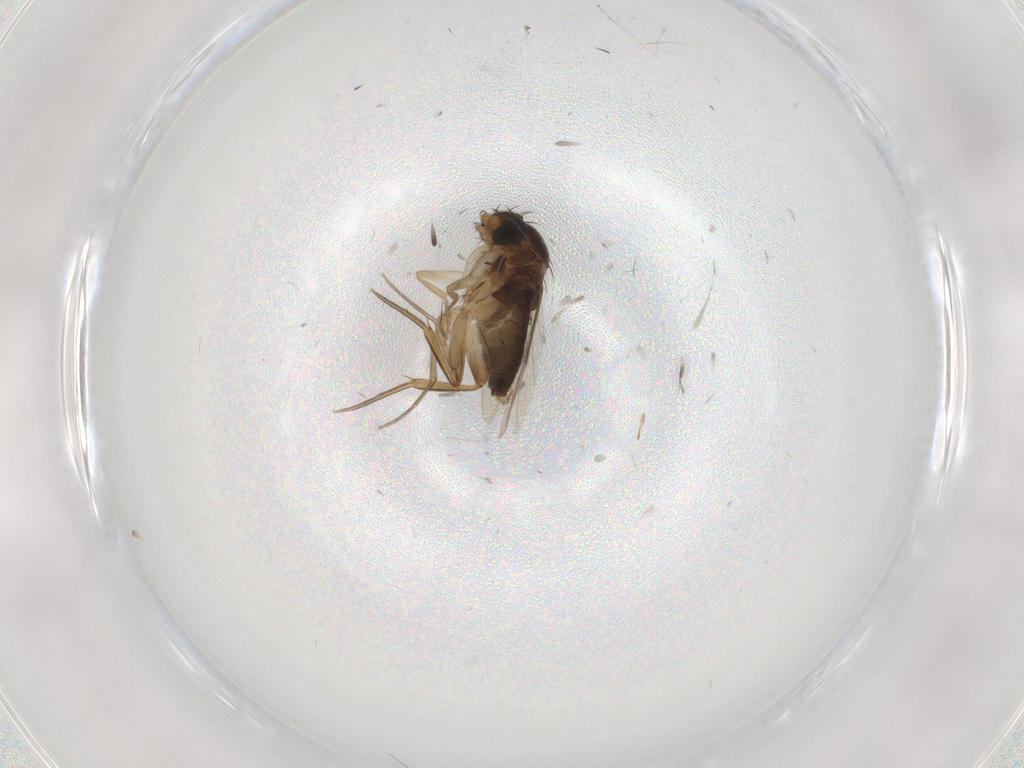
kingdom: Animalia
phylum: Arthropoda
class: Insecta
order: Diptera
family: Phoridae
